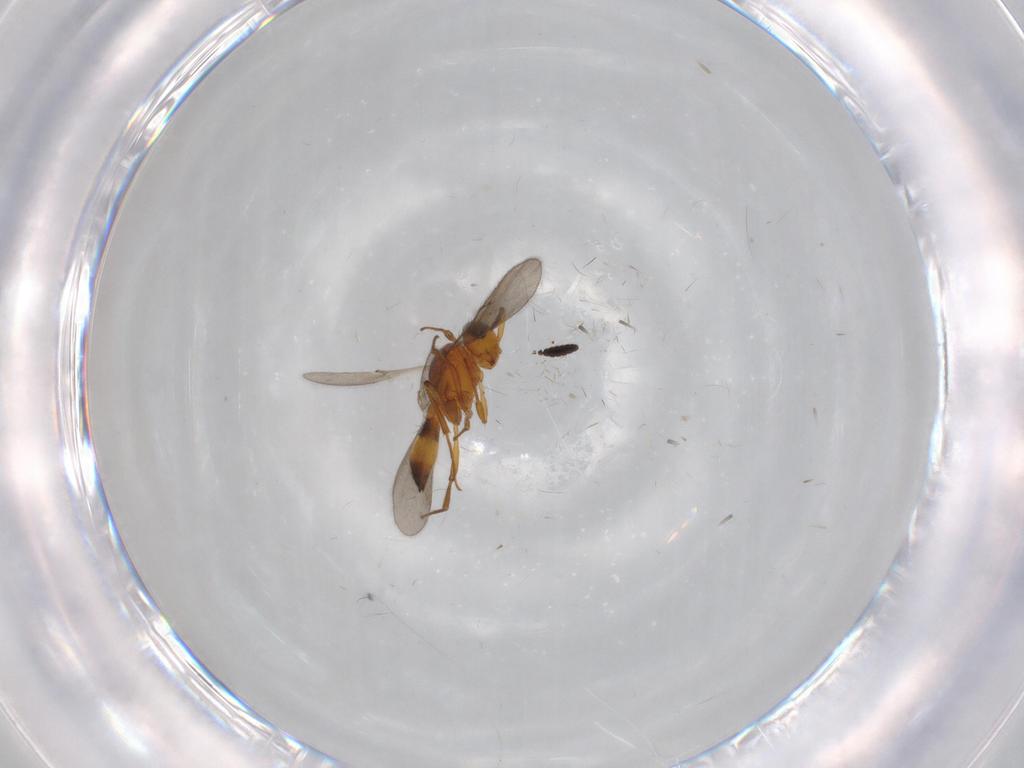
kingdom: Animalia
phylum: Arthropoda
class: Insecta
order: Hymenoptera
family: Scelionidae
